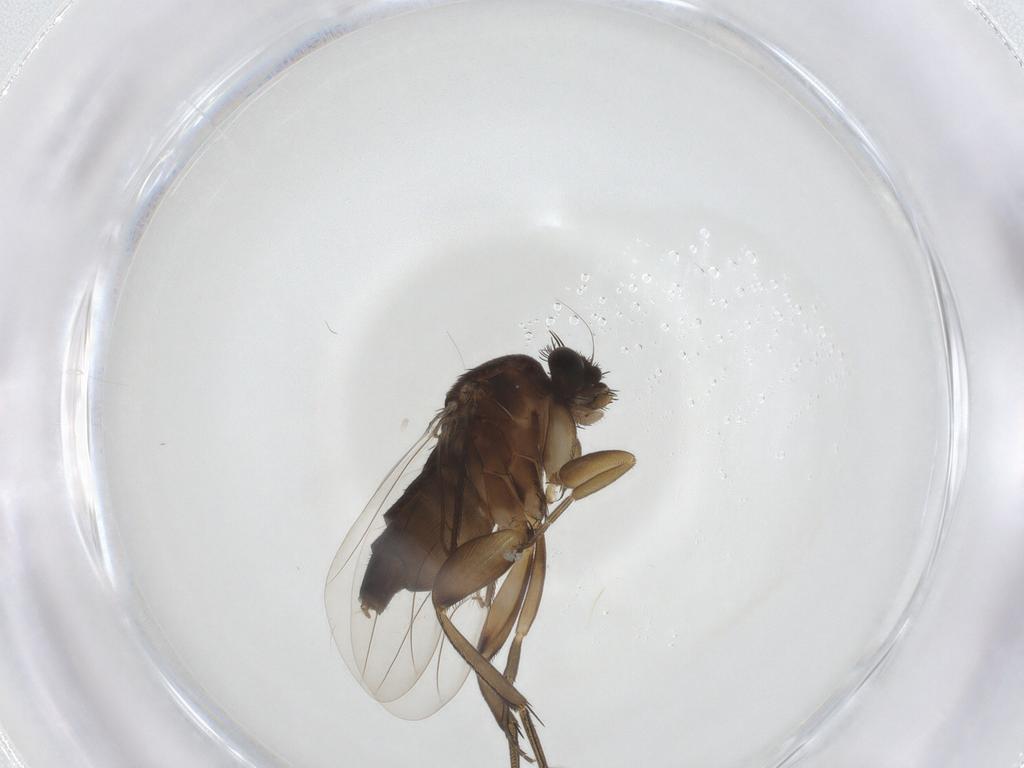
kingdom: Animalia
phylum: Arthropoda
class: Insecta
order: Diptera
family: Phoridae
